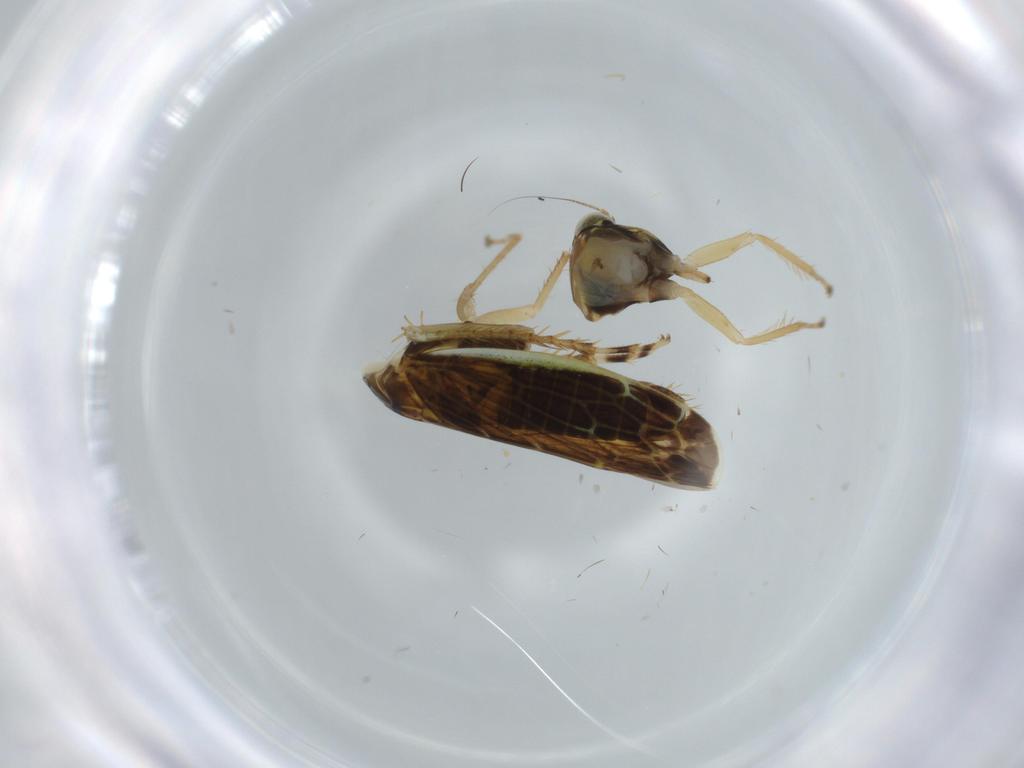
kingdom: Animalia
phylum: Arthropoda
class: Insecta
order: Hemiptera
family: Cicadellidae
